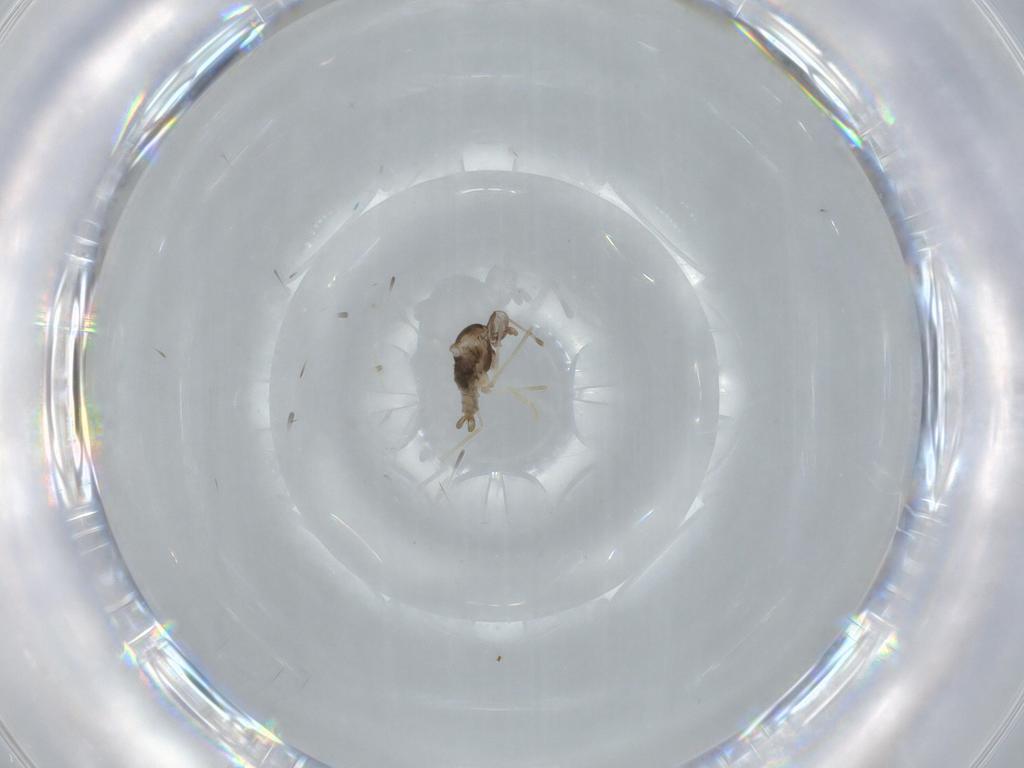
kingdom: Animalia
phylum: Arthropoda
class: Insecta
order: Diptera
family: Cecidomyiidae
